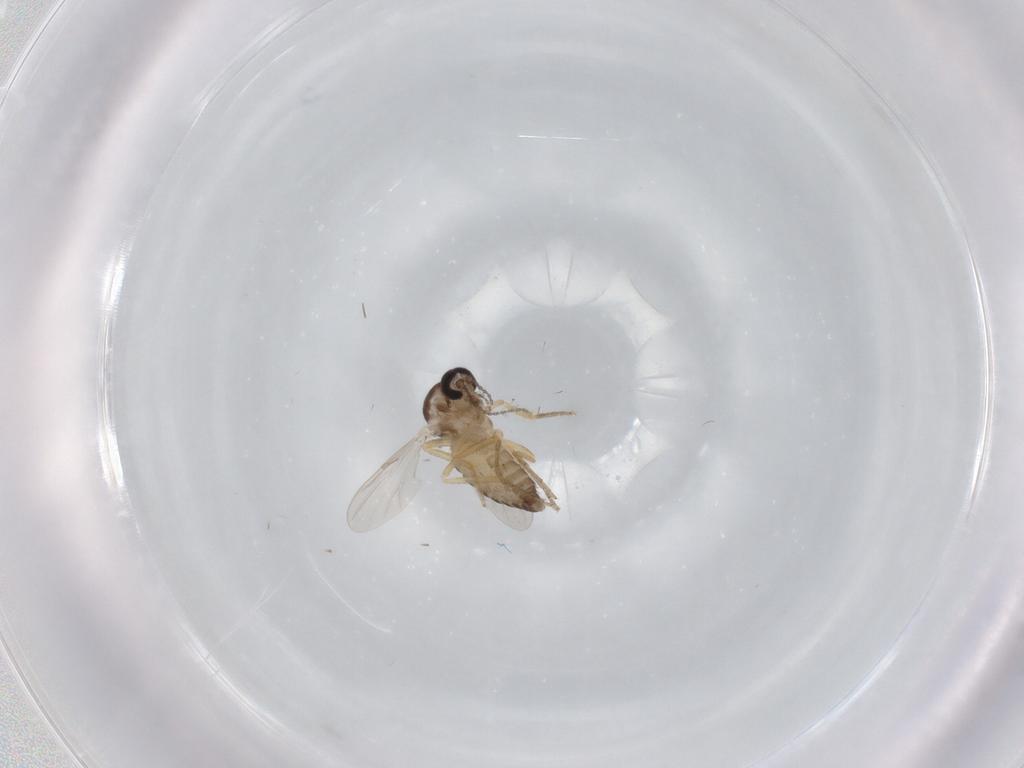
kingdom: Animalia
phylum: Arthropoda
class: Insecta
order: Diptera
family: Ceratopogonidae
